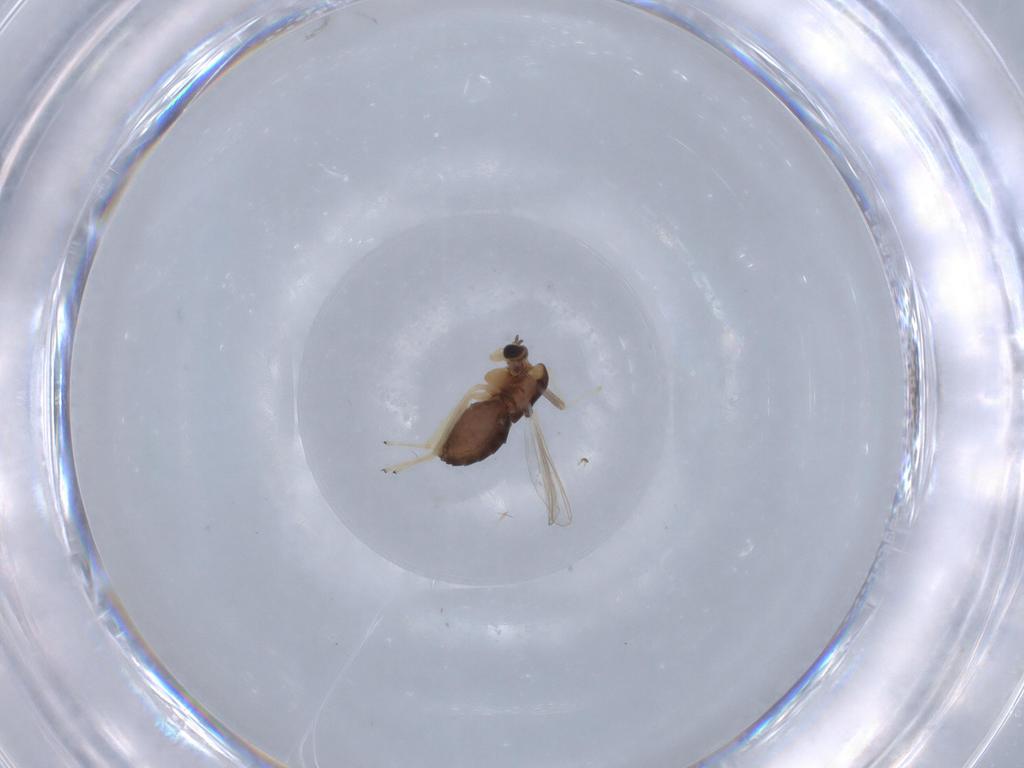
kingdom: Animalia
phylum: Arthropoda
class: Insecta
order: Diptera
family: Chironomidae
